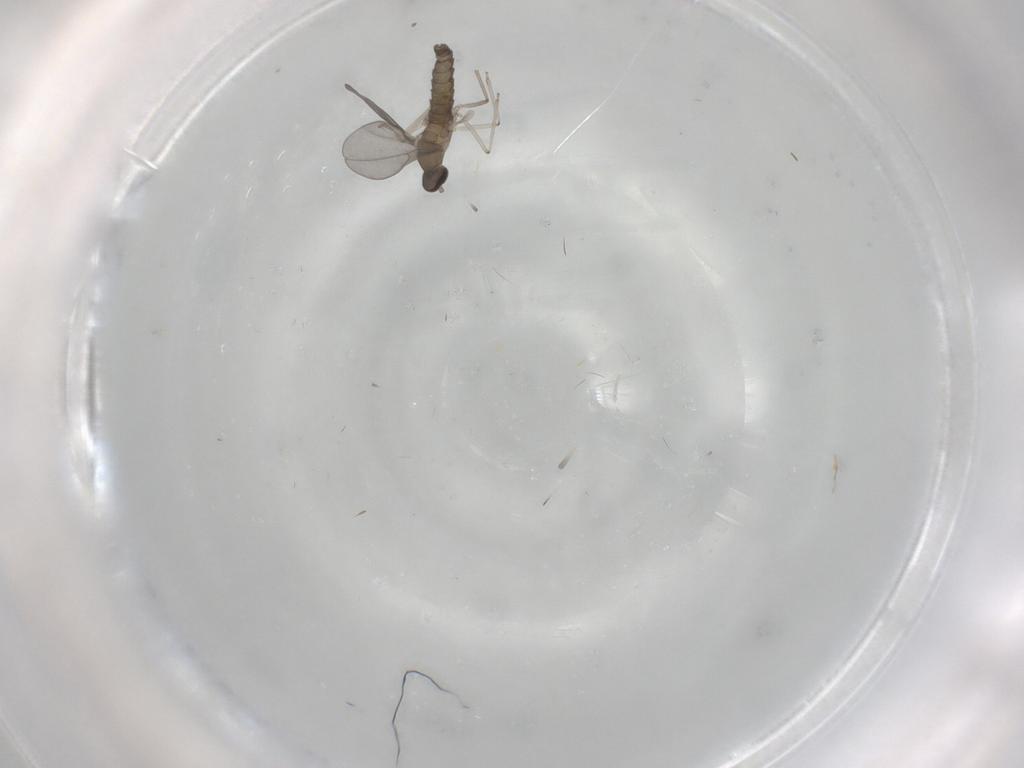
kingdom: Animalia
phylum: Arthropoda
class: Insecta
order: Diptera
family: Cecidomyiidae
